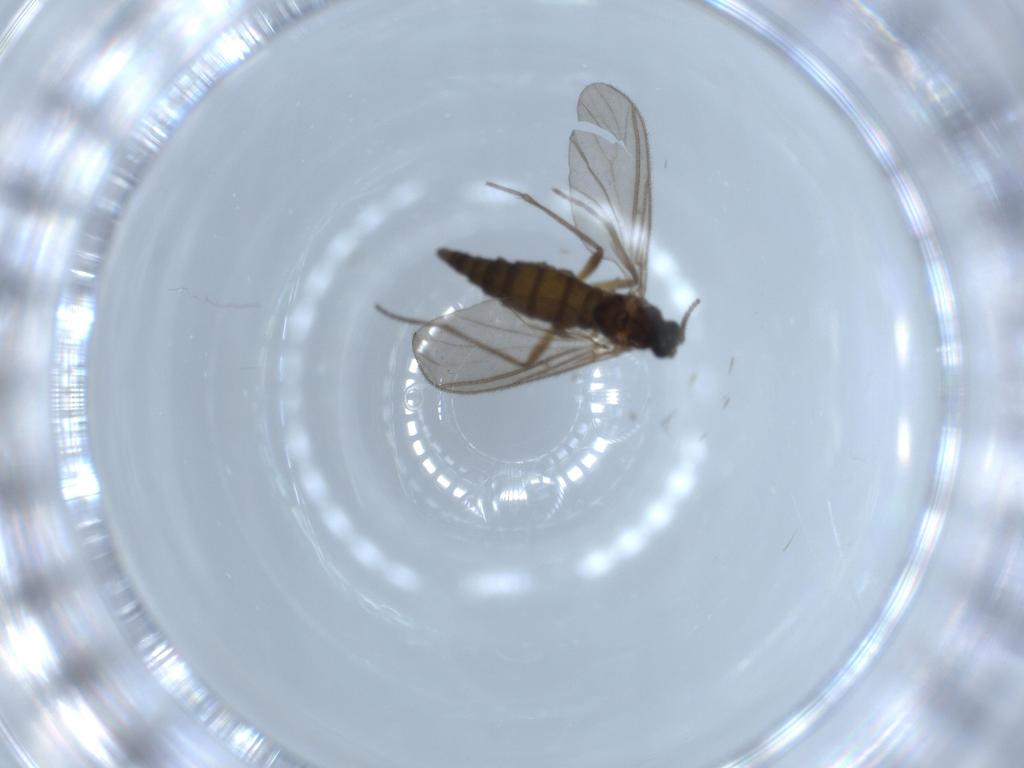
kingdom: Animalia
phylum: Arthropoda
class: Insecta
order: Diptera
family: Sciaridae
